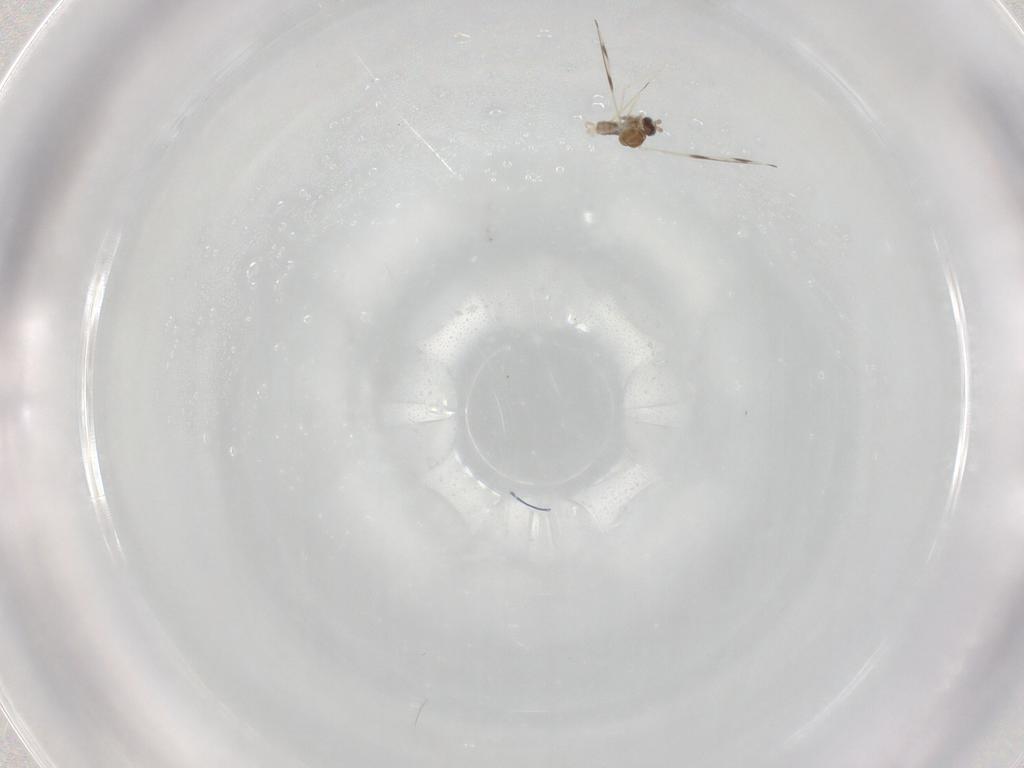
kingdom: Animalia
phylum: Arthropoda
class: Insecta
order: Diptera
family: Cecidomyiidae
